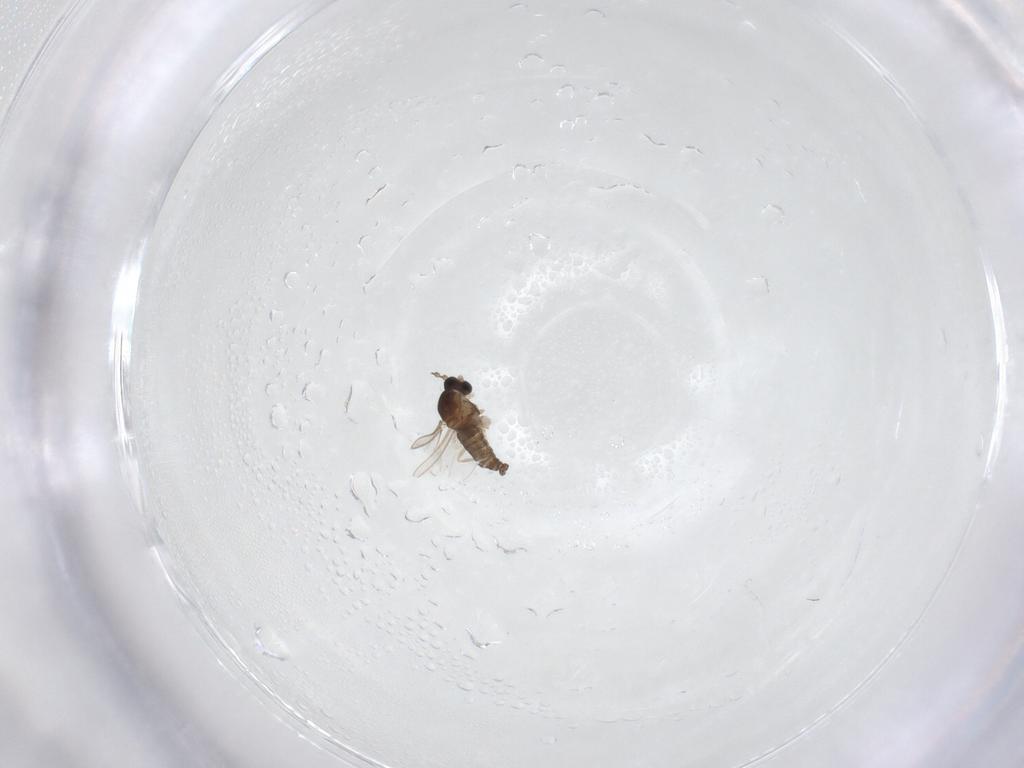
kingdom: Animalia
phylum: Arthropoda
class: Insecta
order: Diptera
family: Cecidomyiidae
